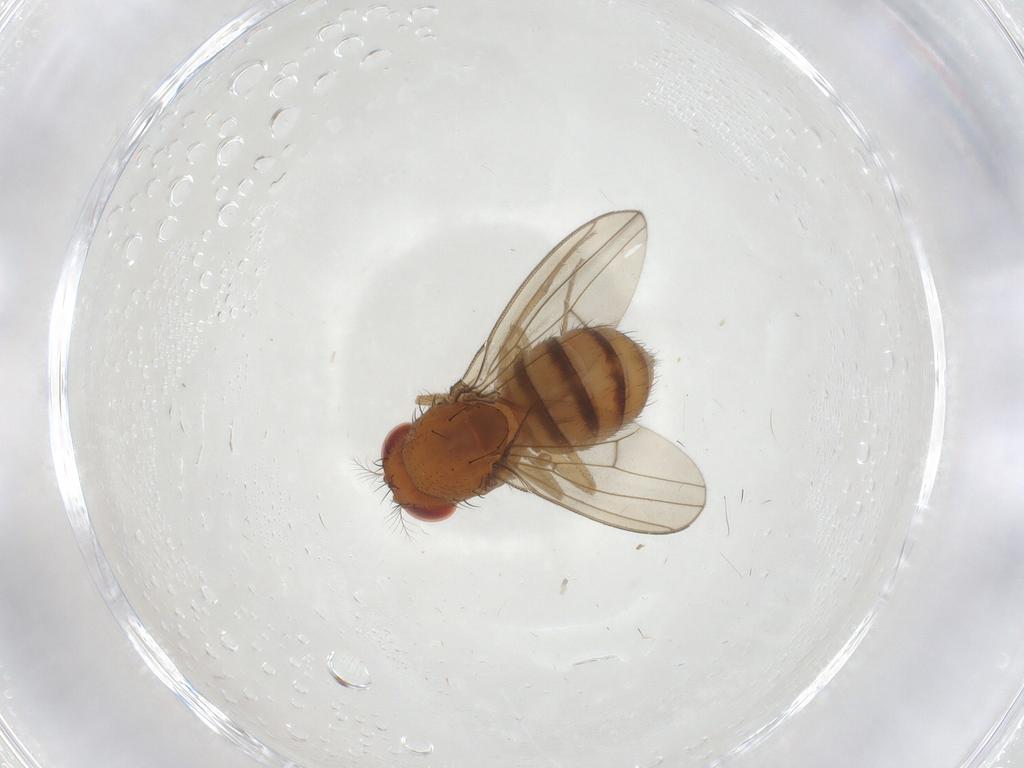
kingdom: Animalia
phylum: Arthropoda
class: Insecta
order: Diptera
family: Drosophilidae
